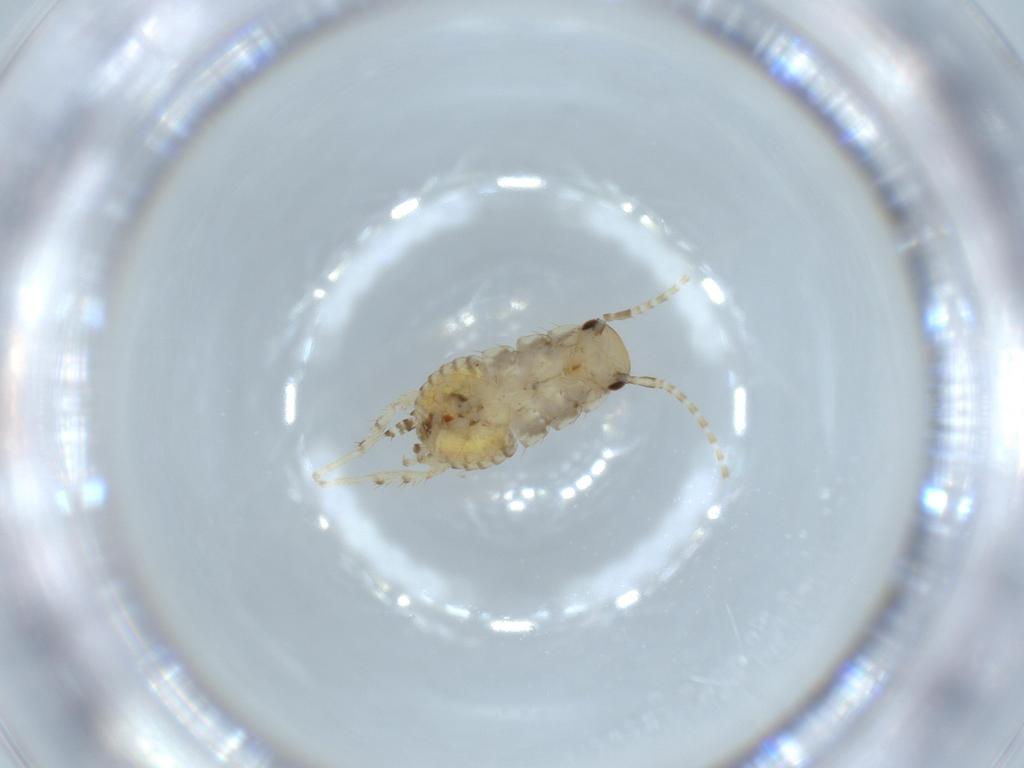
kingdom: Animalia
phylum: Arthropoda
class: Insecta
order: Blattodea
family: Ectobiidae
